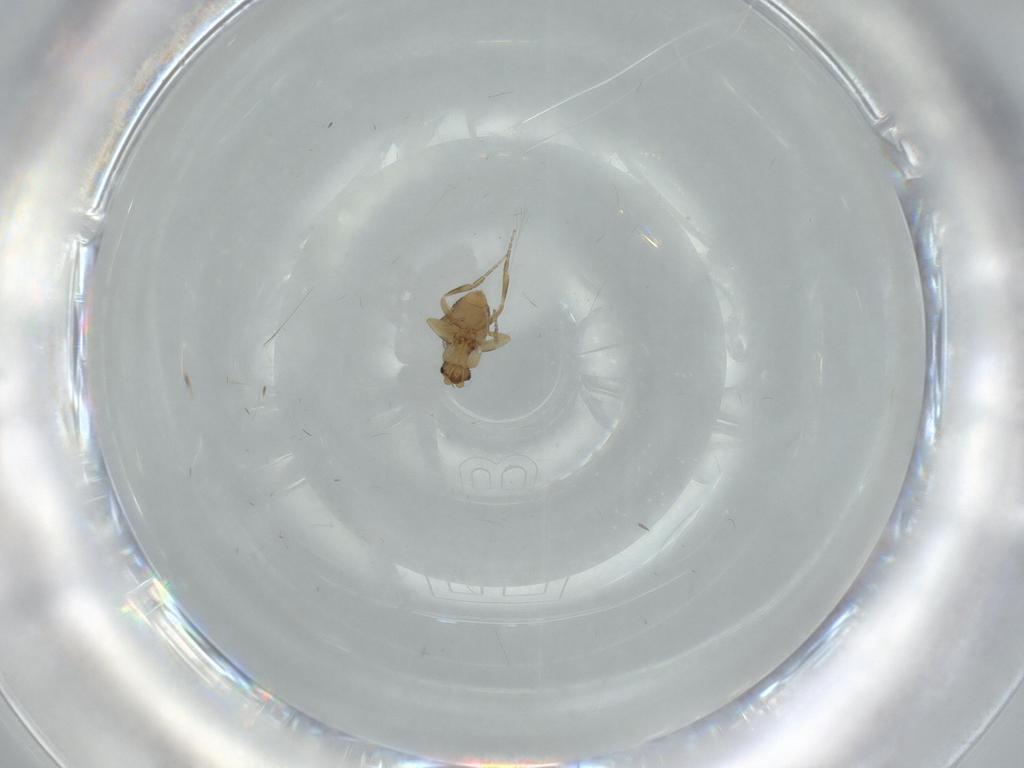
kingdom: Animalia
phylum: Arthropoda
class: Insecta
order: Diptera
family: Phoridae
